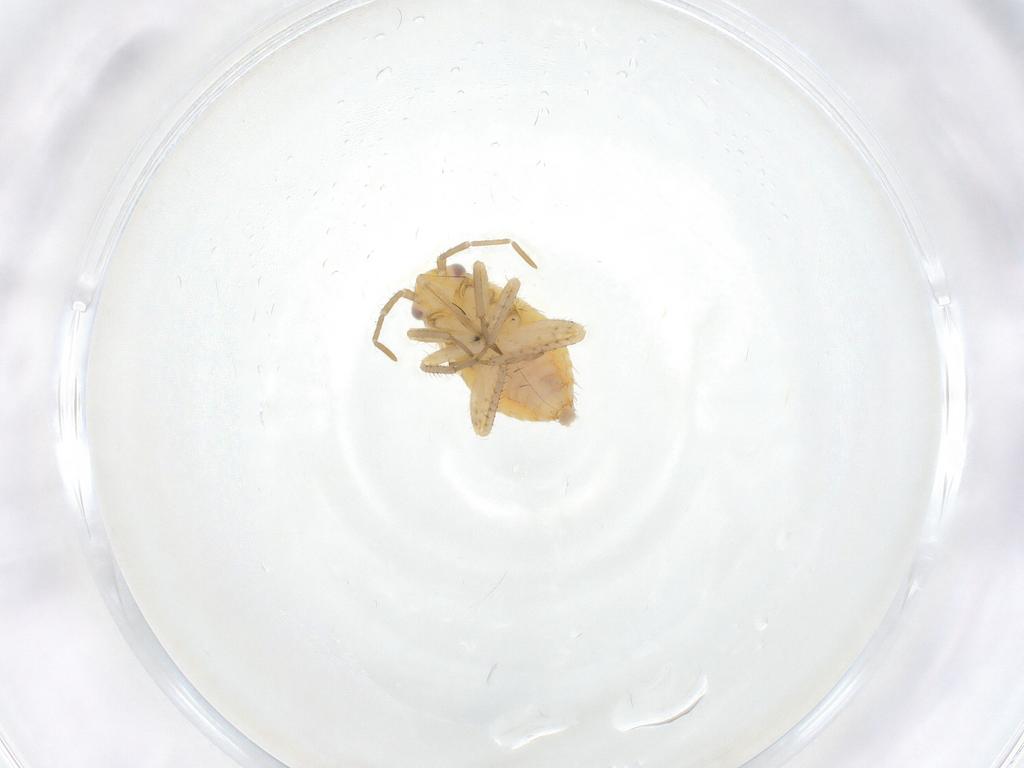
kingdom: Animalia
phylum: Arthropoda
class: Insecta
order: Hemiptera
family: Miridae
